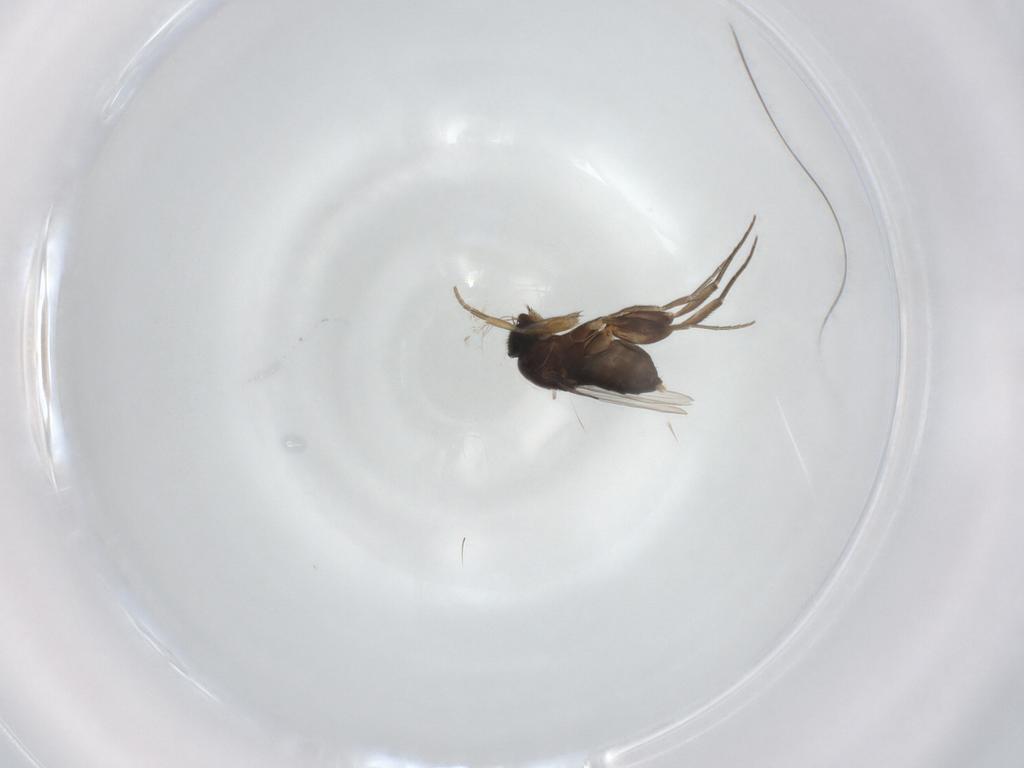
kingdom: Animalia
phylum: Arthropoda
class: Insecta
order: Diptera
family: Phoridae
